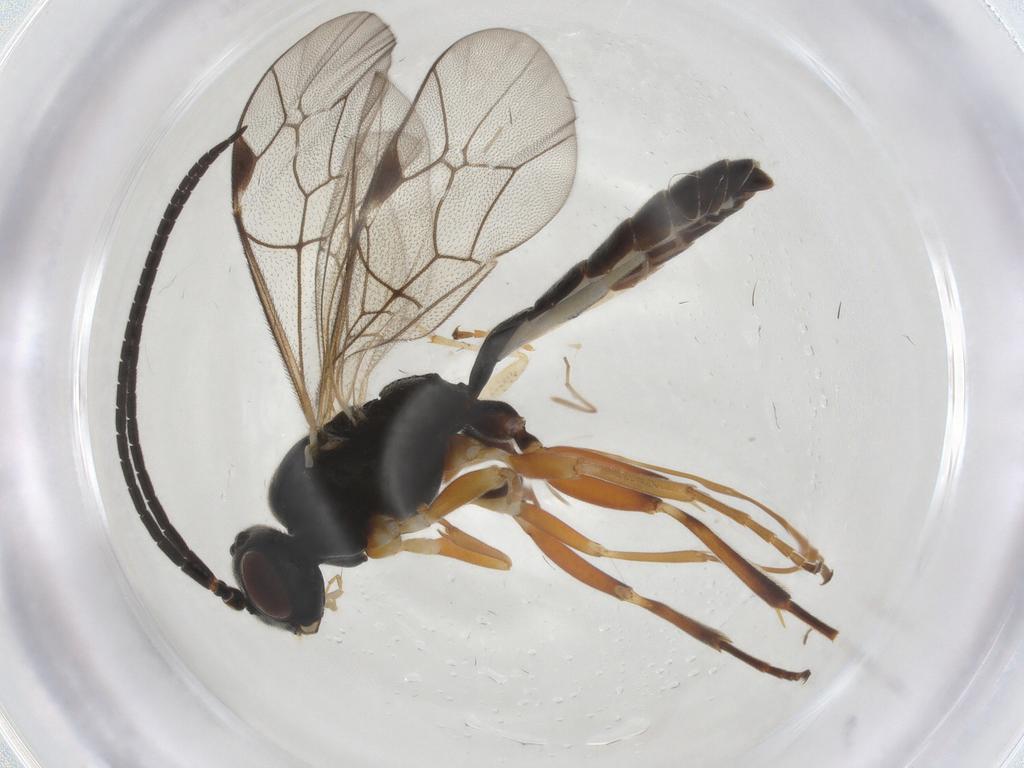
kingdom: Animalia
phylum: Arthropoda
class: Insecta
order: Hymenoptera
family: Ichneumonidae
